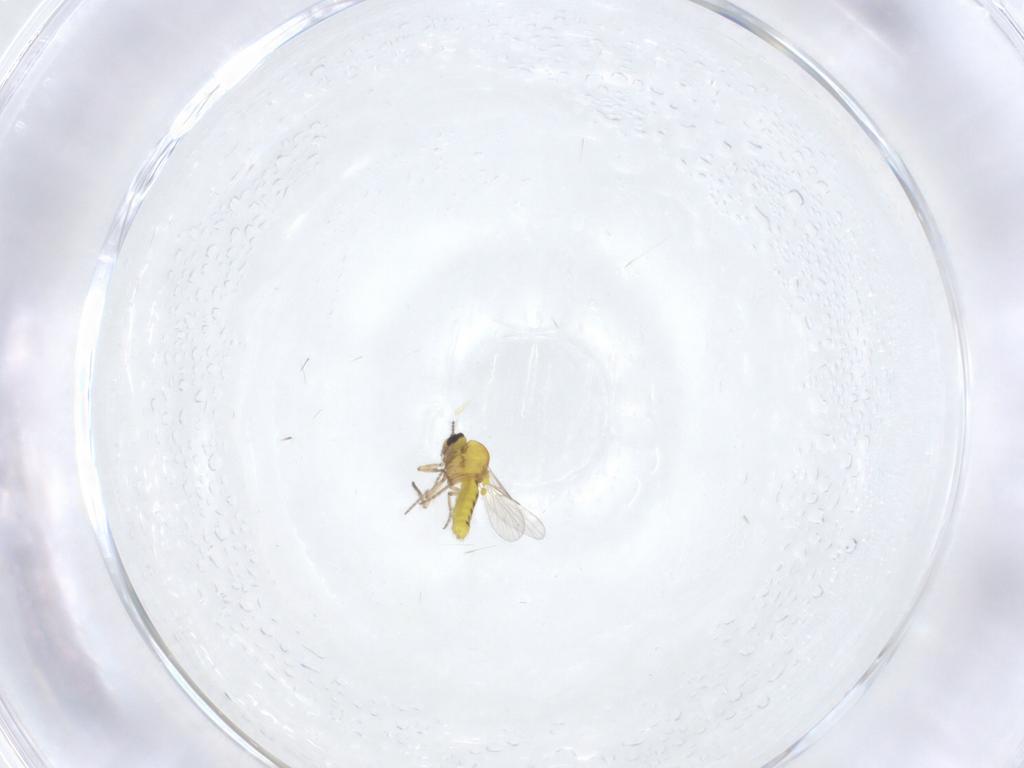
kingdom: Animalia
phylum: Arthropoda
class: Insecta
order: Diptera
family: Ceratopogonidae
